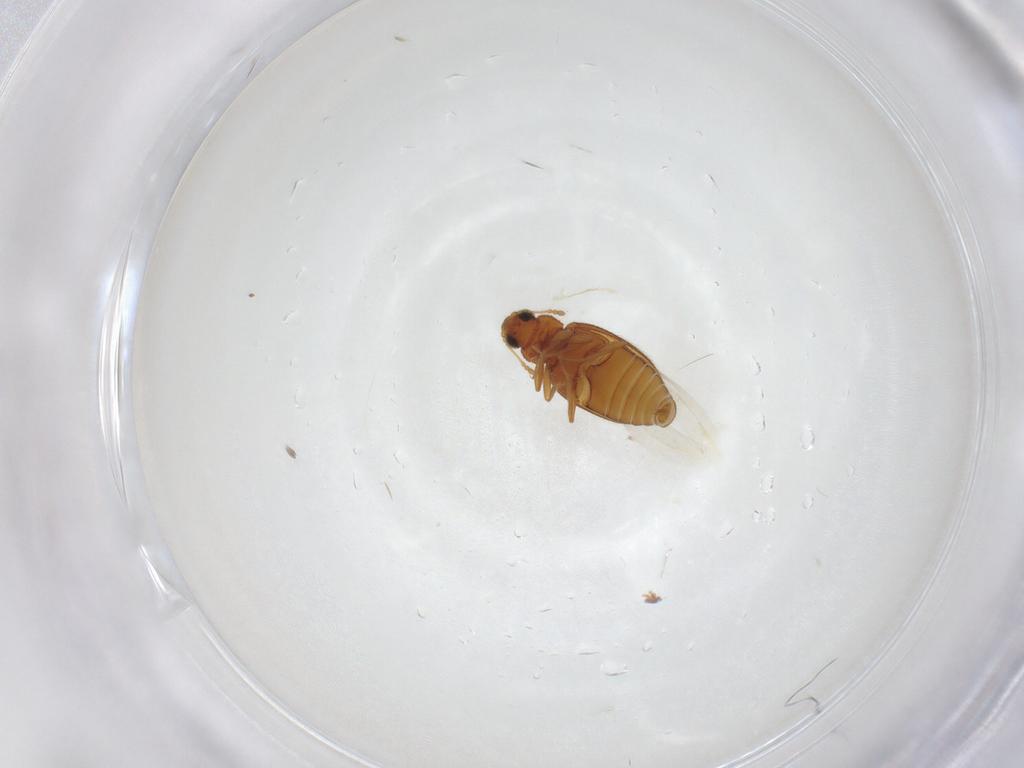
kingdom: Animalia
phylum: Arthropoda
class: Insecta
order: Coleoptera
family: Latridiidae
